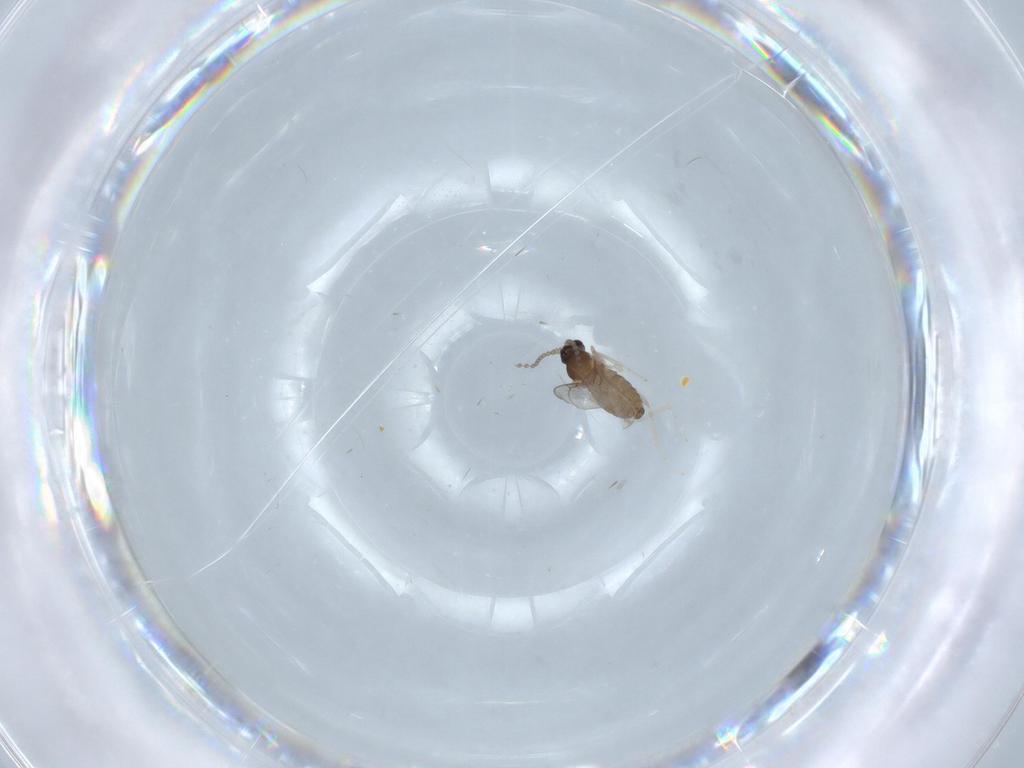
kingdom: Animalia
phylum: Arthropoda
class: Insecta
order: Diptera
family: Cecidomyiidae
